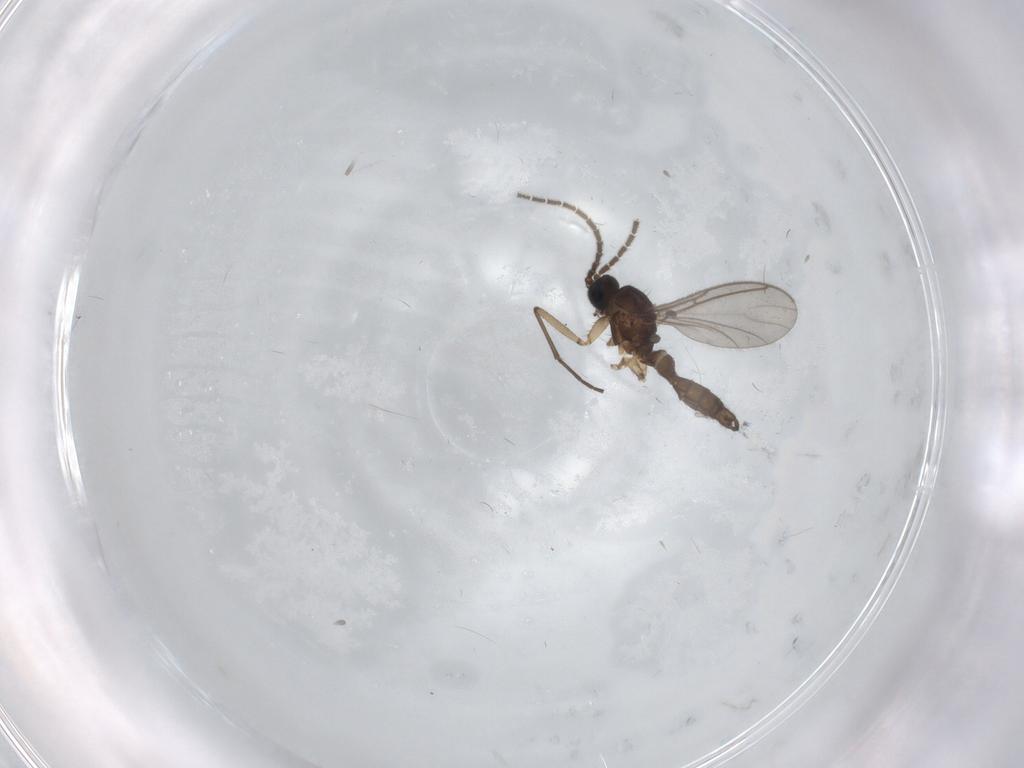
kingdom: Animalia
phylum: Arthropoda
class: Insecta
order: Diptera
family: Sciaridae
